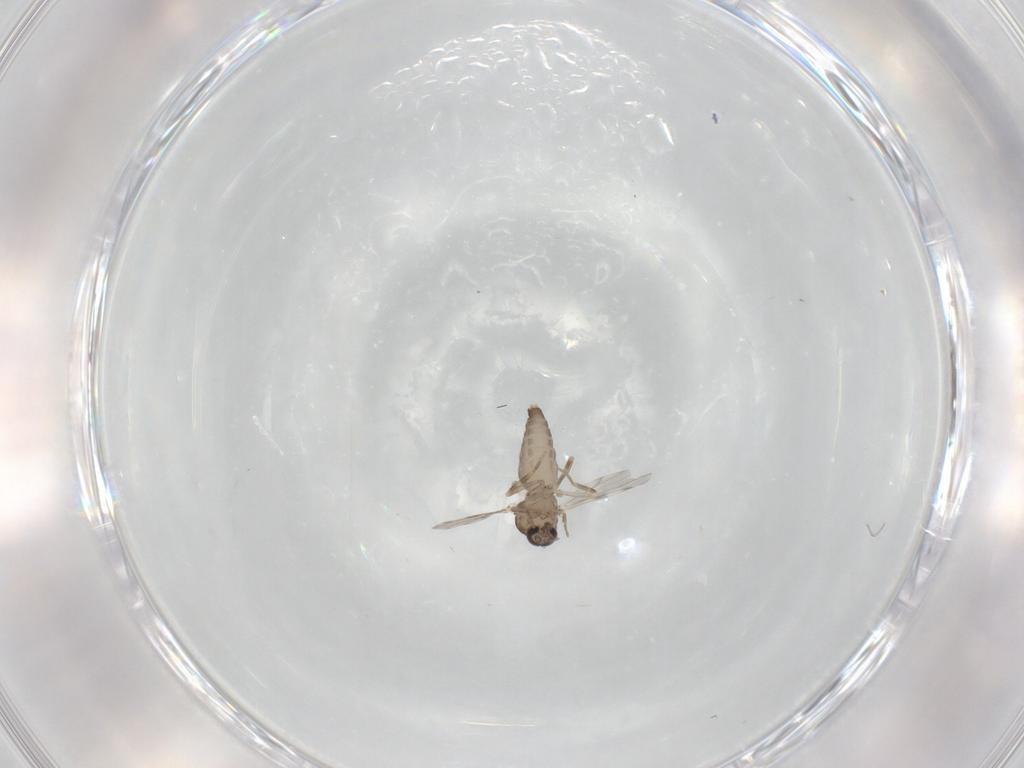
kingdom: Animalia
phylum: Arthropoda
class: Insecta
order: Diptera
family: Ceratopogonidae
